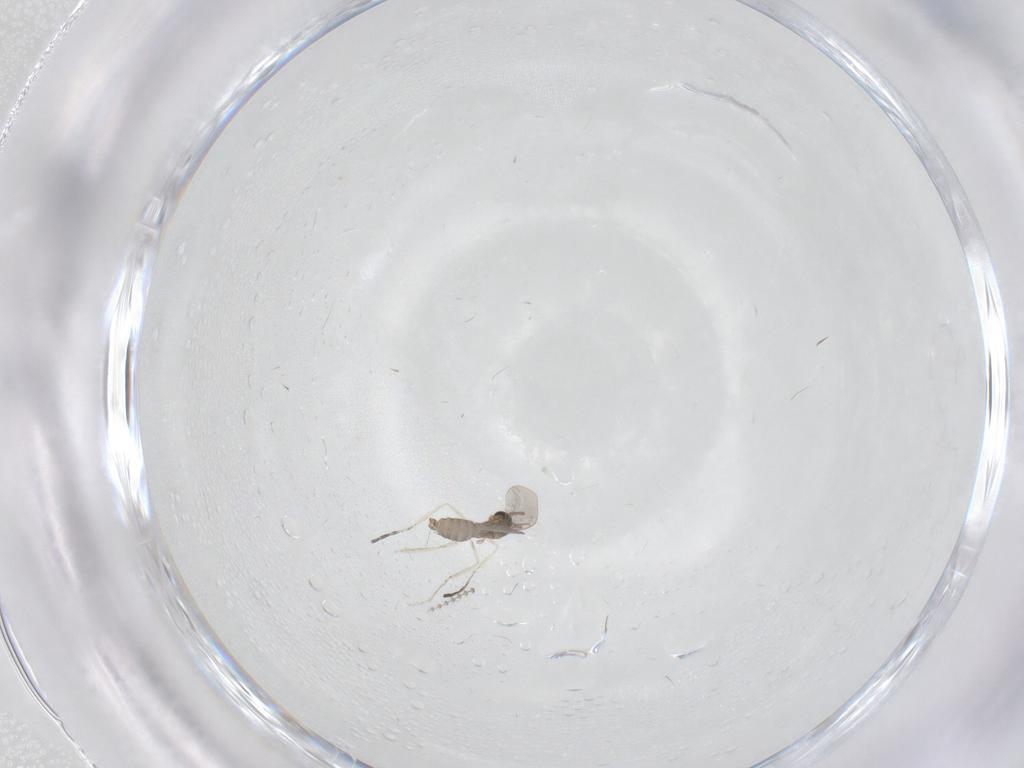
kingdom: Animalia
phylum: Arthropoda
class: Insecta
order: Diptera
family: Cecidomyiidae
